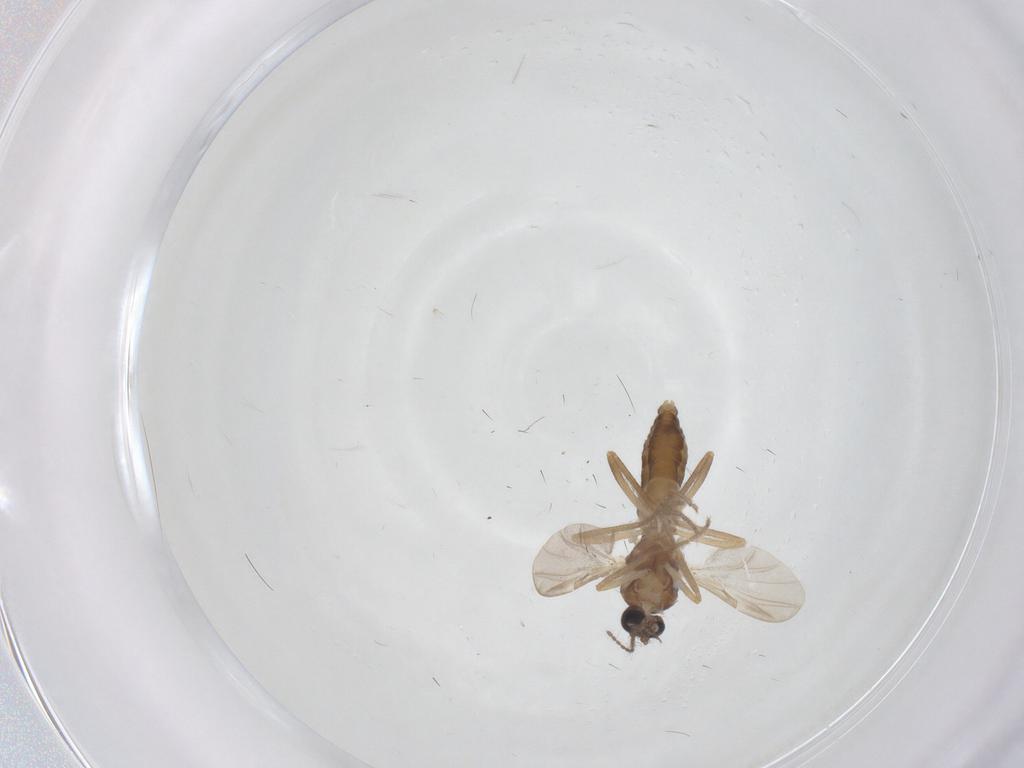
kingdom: Animalia
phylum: Arthropoda
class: Insecta
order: Diptera
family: Ceratopogonidae
